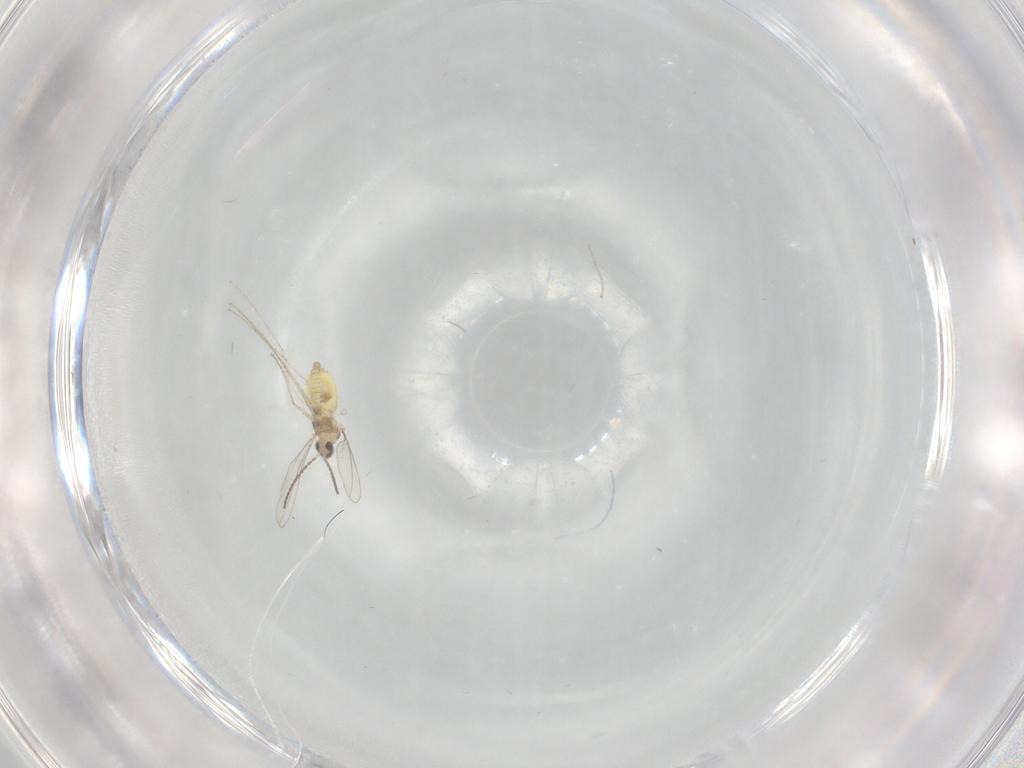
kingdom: Animalia
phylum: Arthropoda
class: Insecta
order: Diptera
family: Cecidomyiidae
